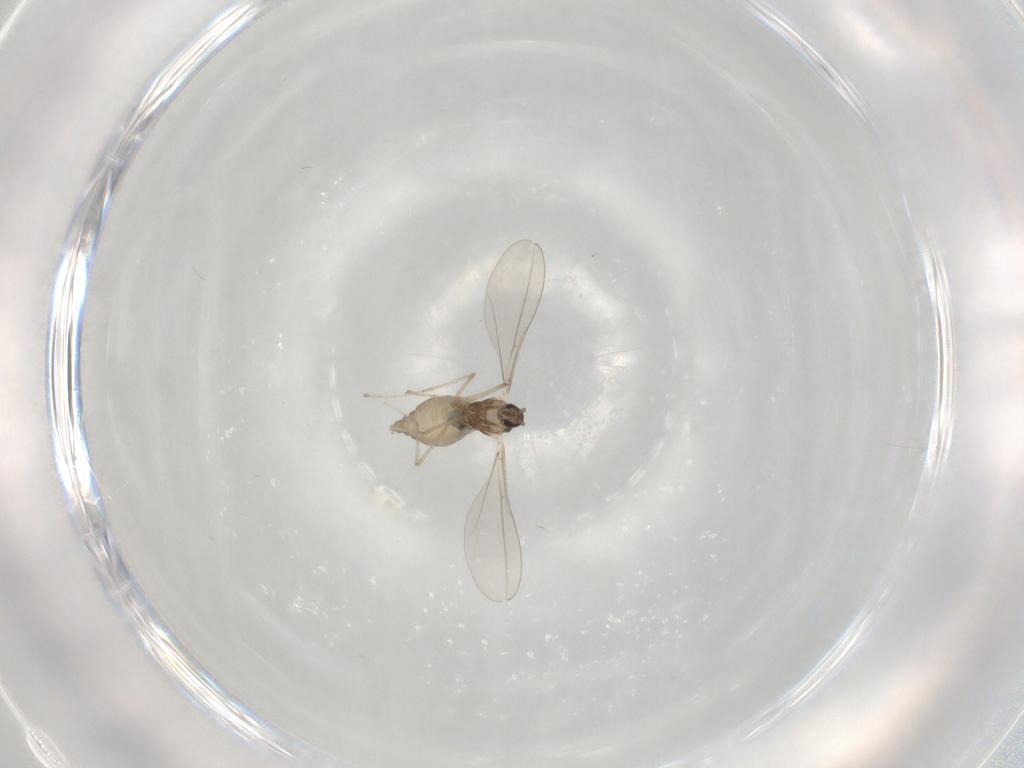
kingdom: Animalia
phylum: Arthropoda
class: Insecta
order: Diptera
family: Cecidomyiidae
